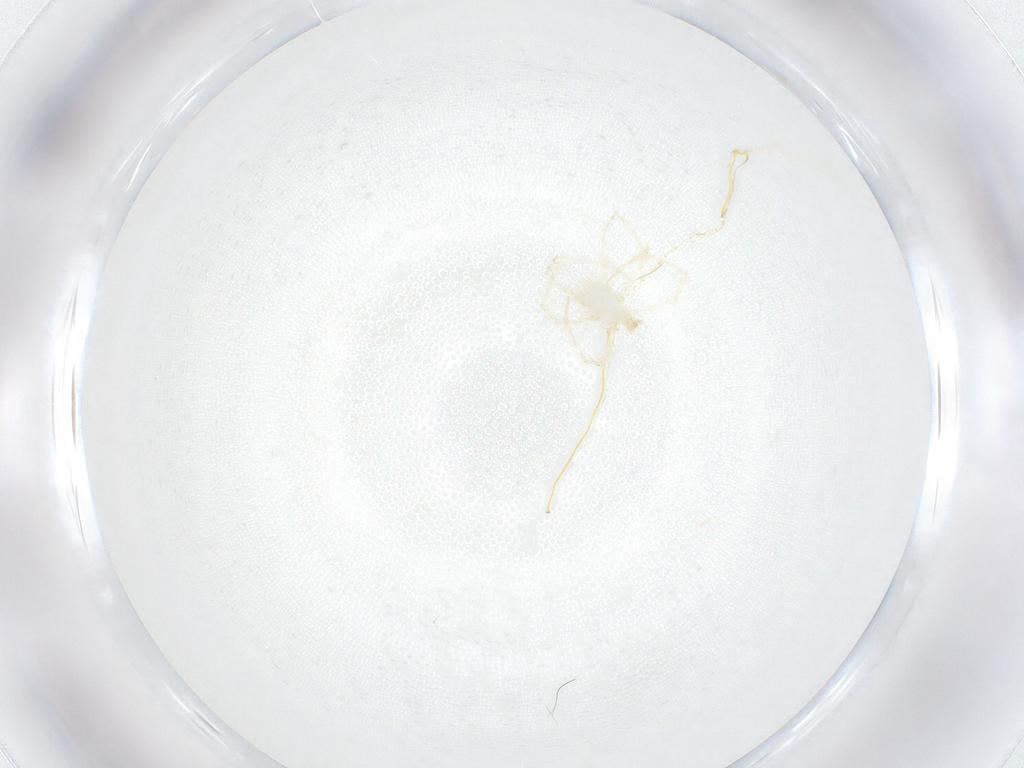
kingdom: Animalia
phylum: Arthropoda
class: Arachnida
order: Trombidiformes
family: Erythraeidae
